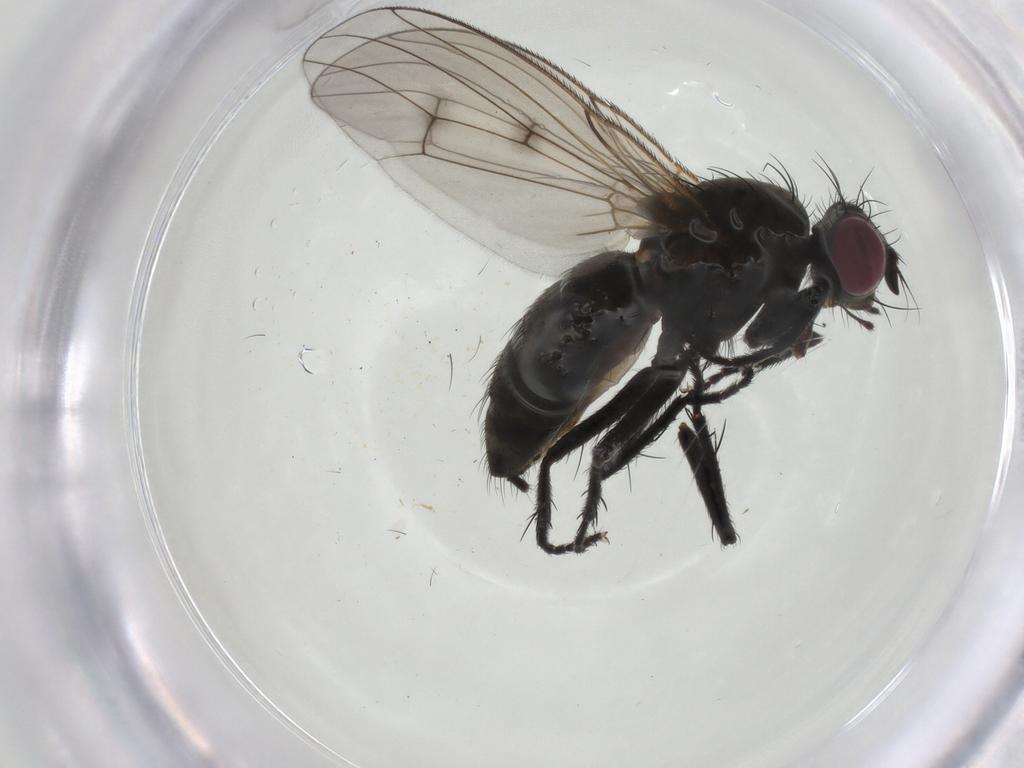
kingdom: Animalia
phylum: Arthropoda
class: Insecta
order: Diptera
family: Muscidae
